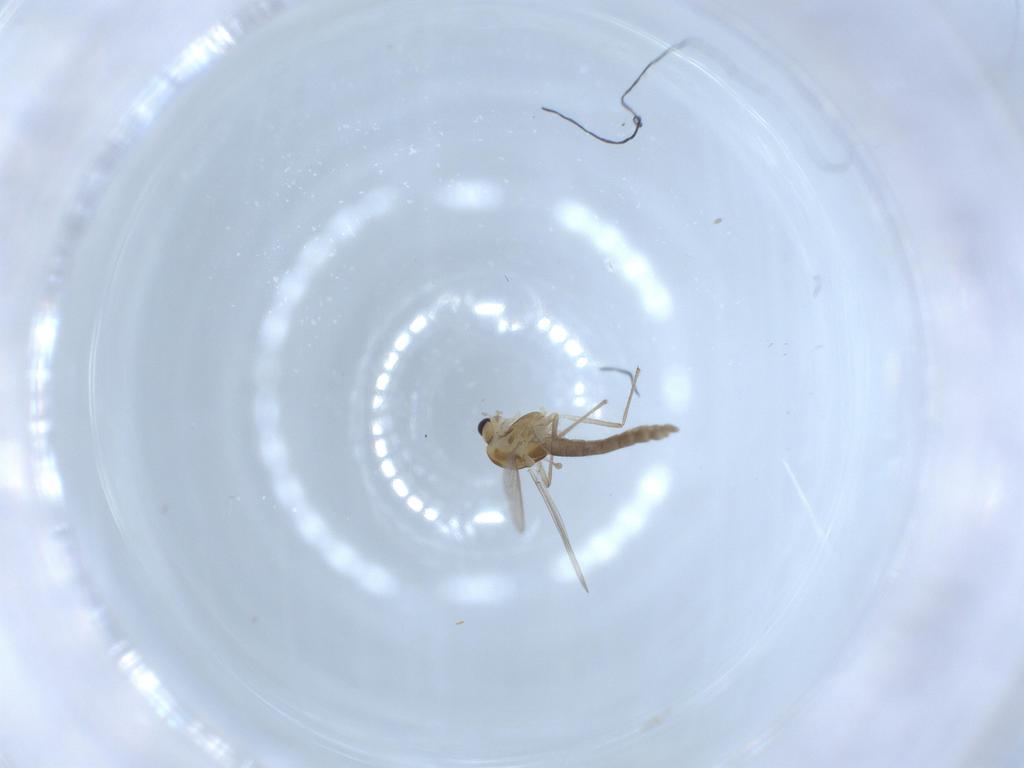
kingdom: Animalia
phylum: Arthropoda
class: Insecta
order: Diptera
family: Chironomidae
